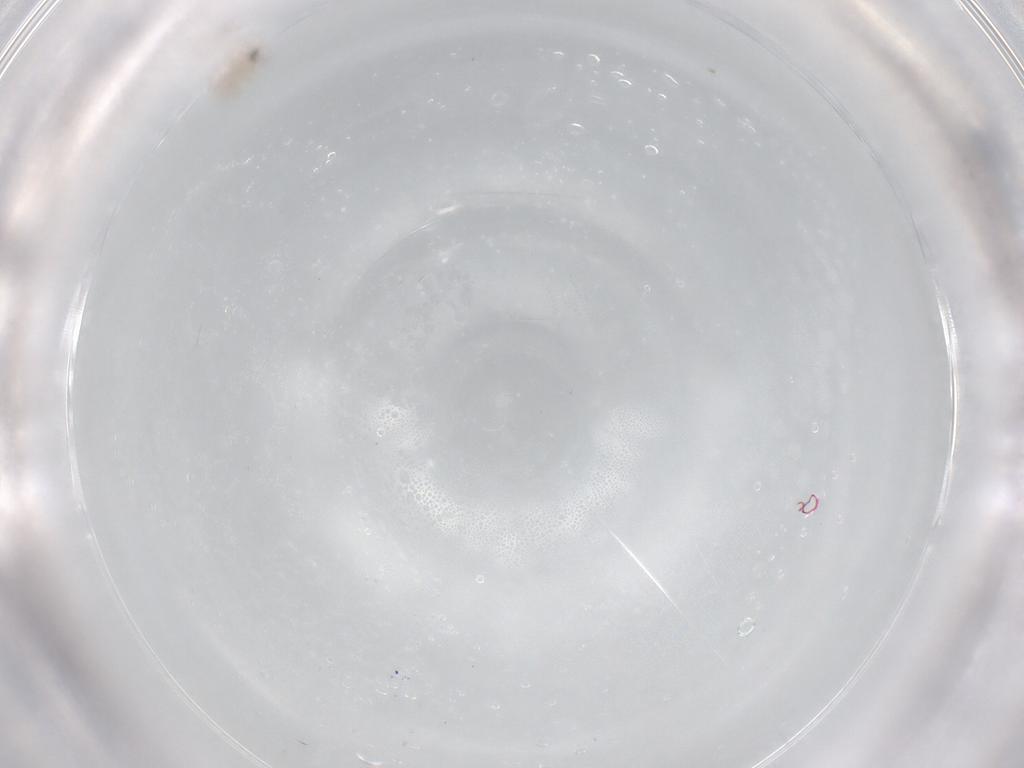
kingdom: Animalia
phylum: Arthropoda
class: Insecta
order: Hymenoptera
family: Trichogrammatidae
